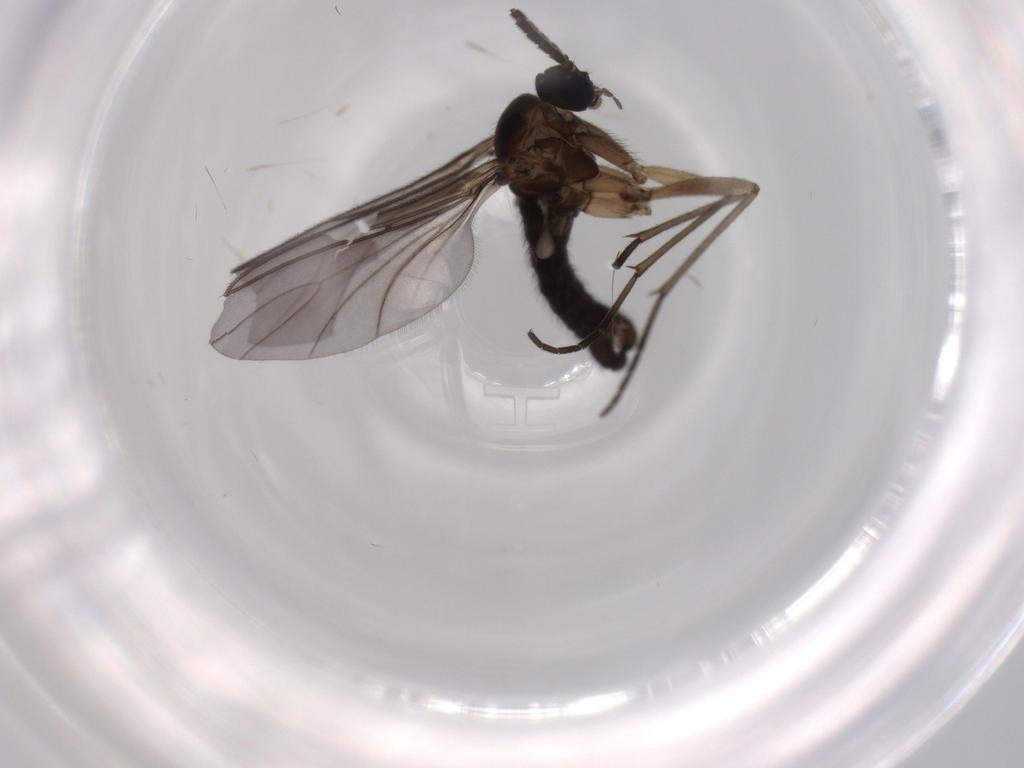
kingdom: Animalia
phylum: Arthropoda
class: Insecta
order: Diptera
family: Sciaridae
